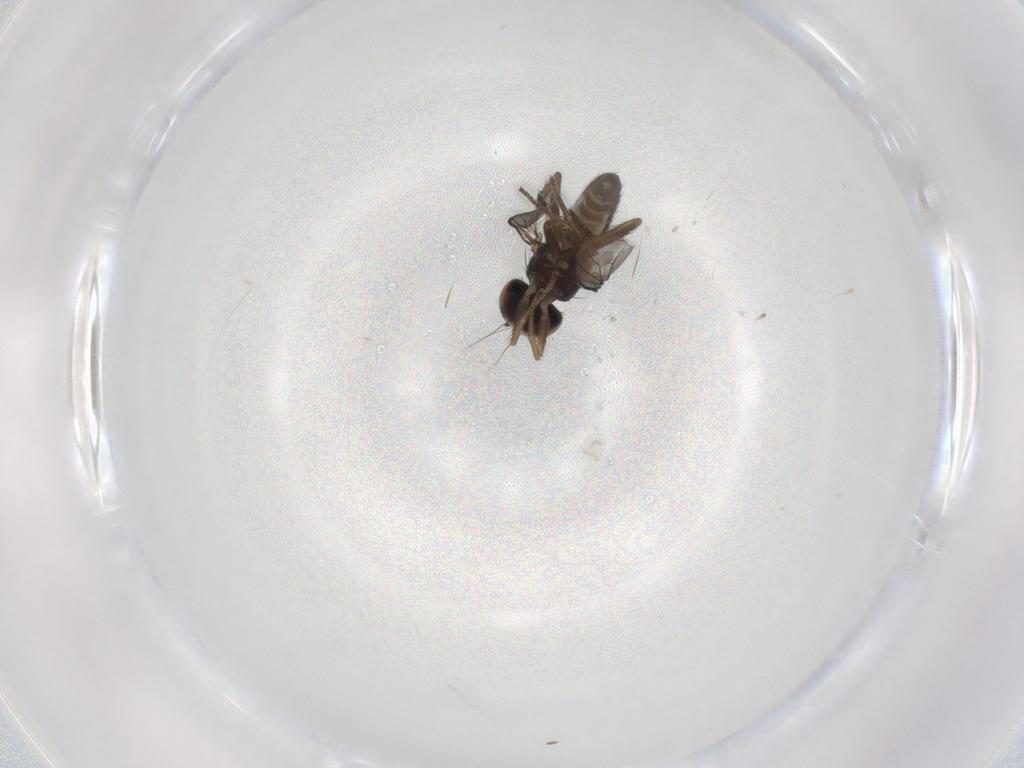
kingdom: Animalia
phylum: Arthropoda
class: Insecta
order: Diptera
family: Dolichopodidae
